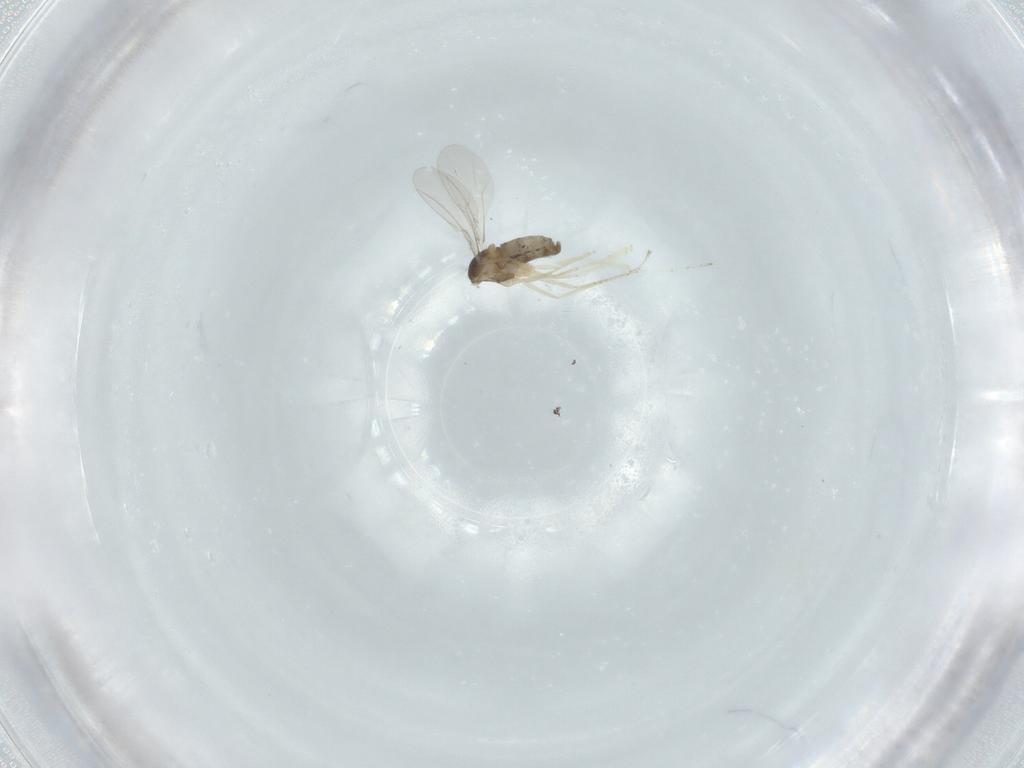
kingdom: Animalia
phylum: Arthropoda
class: Insecta
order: Diptera
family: Psychodidae
